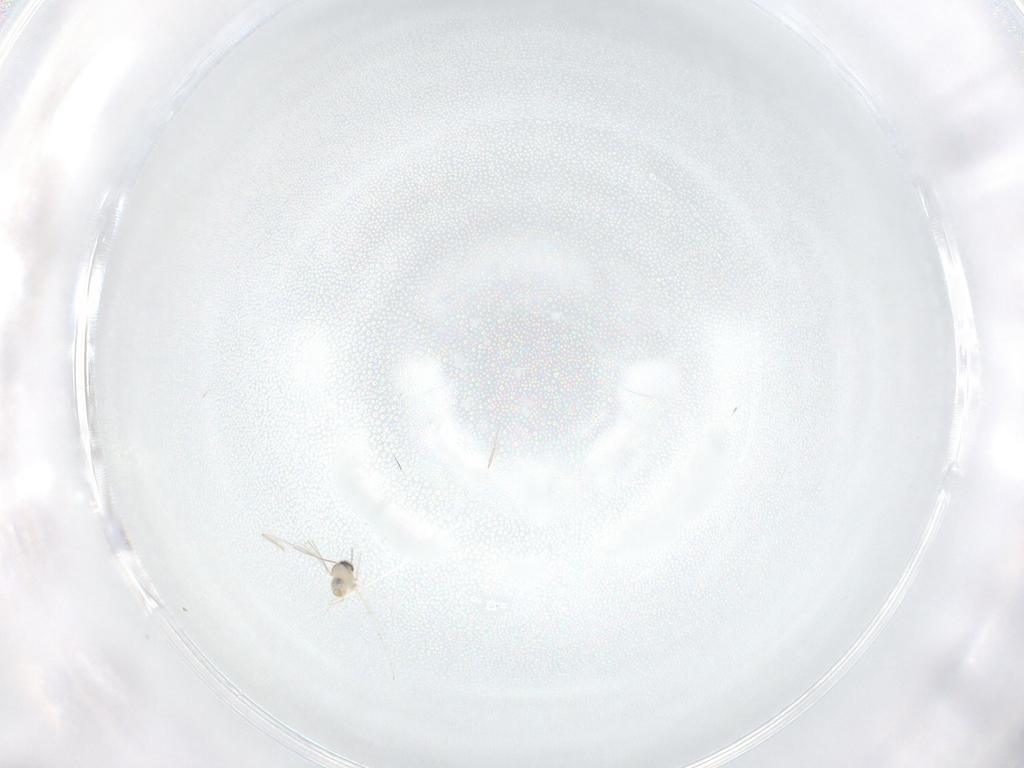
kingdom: Animalia
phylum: Arthropoda
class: Insecta
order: Diptera
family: Cecidomyiidae
